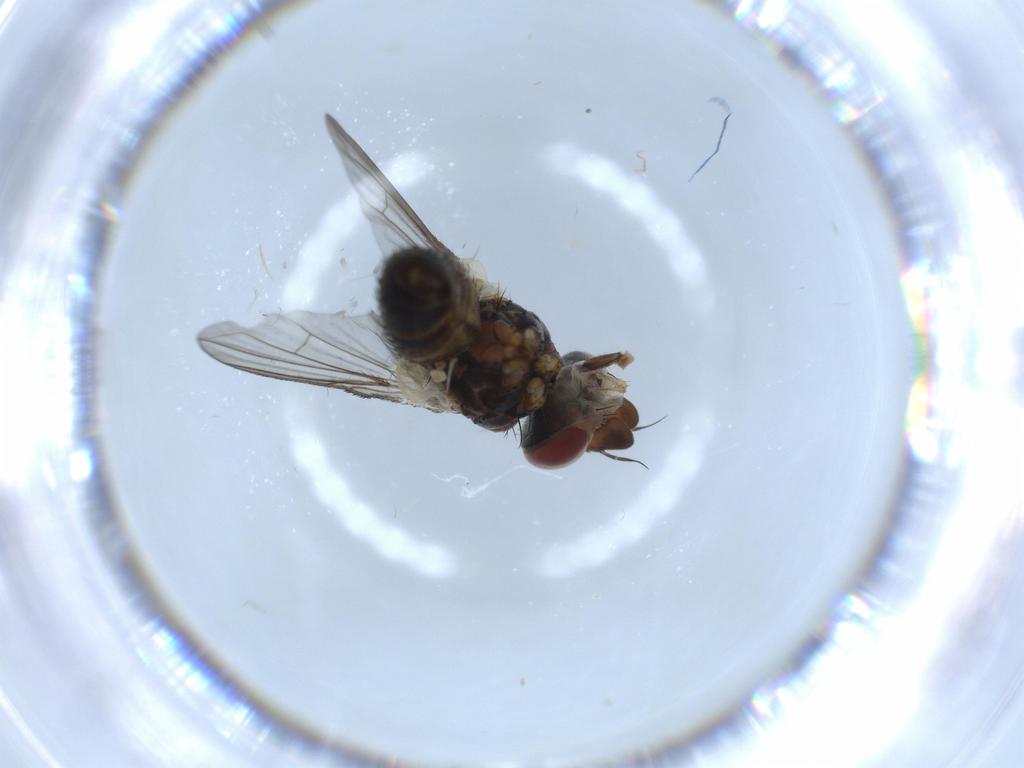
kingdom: Animalia
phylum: Arthropoda
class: Insecta
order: Diptera
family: Tachinidae
